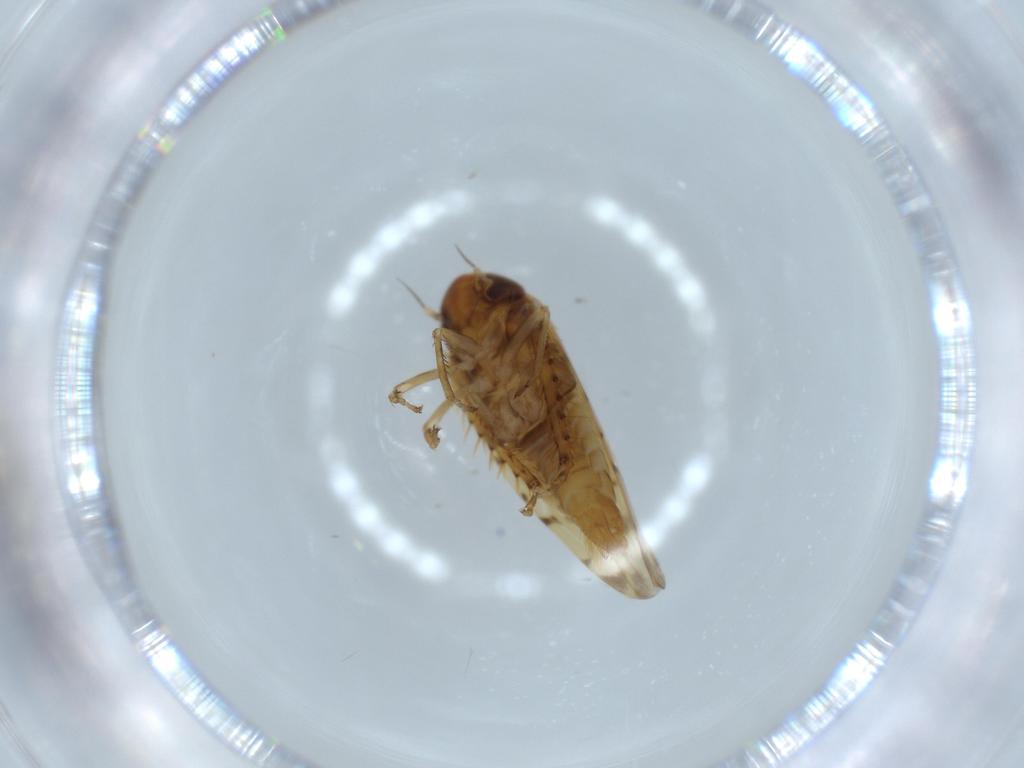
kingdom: Animalia
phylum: Arthropoda
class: Insecta
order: Hemiptera
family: Cicadellidae
